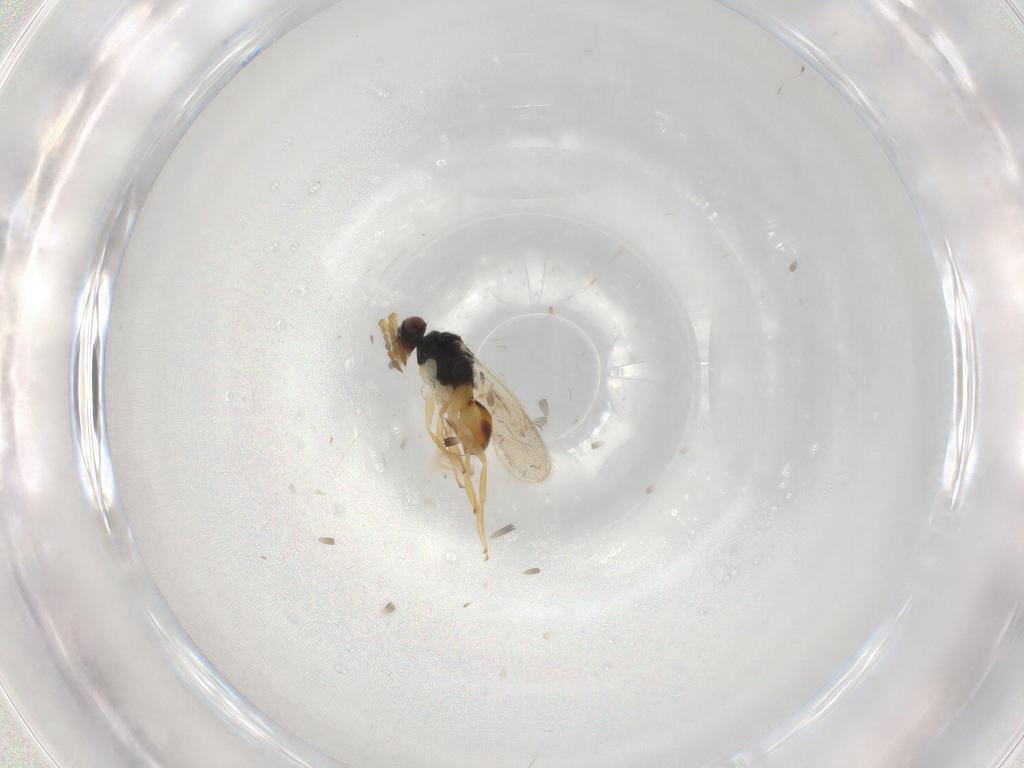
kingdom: Animalia
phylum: Arthropoda
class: Insecta
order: Hymenoptera
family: Eulophidae
